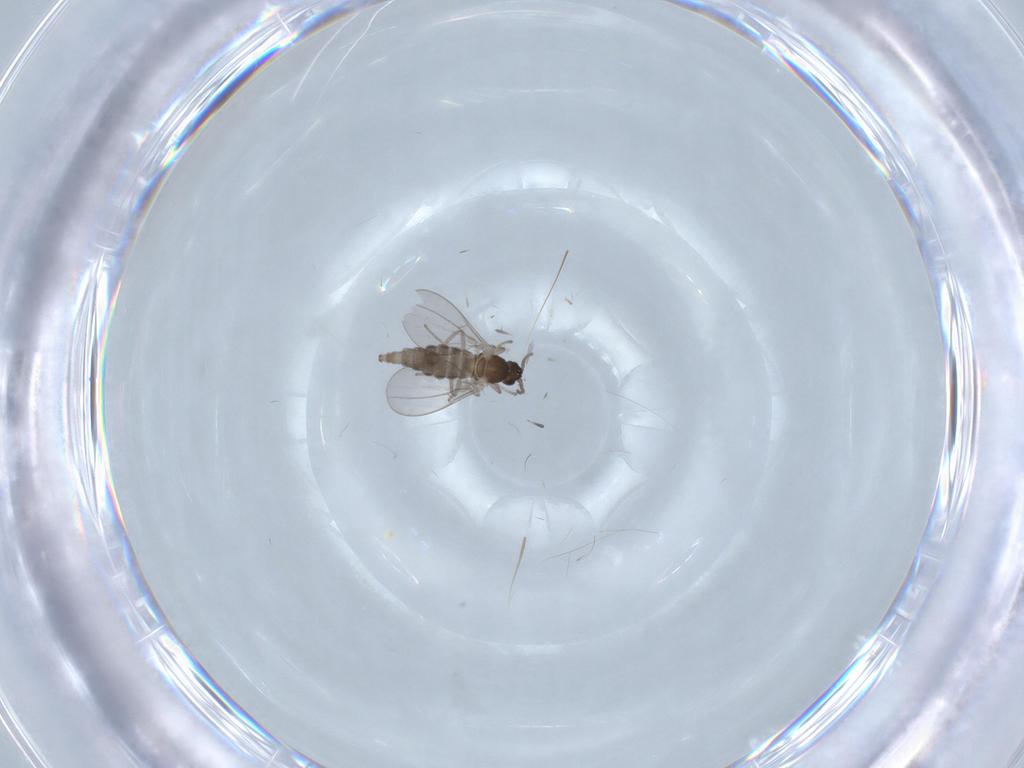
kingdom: Animalia
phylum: Arthropoda
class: Insecta
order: Diptera
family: Cecidomyiidae
